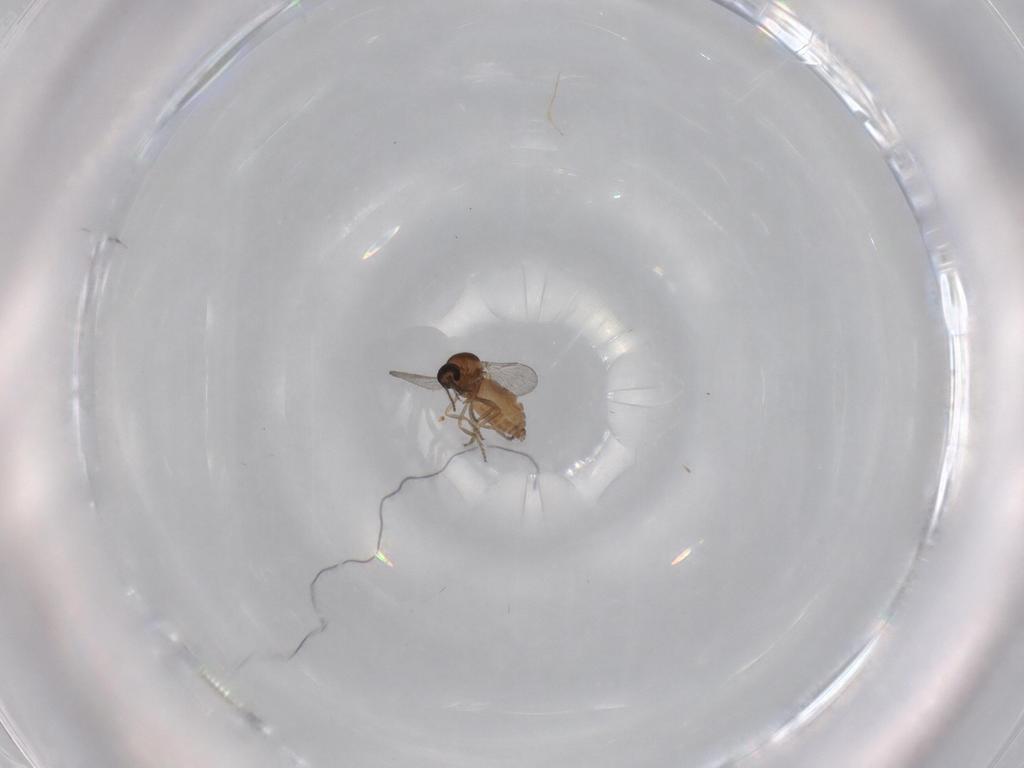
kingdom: Animalia
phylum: Arthropoda
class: Insecta
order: Diptera
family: Ceratopogonidae
